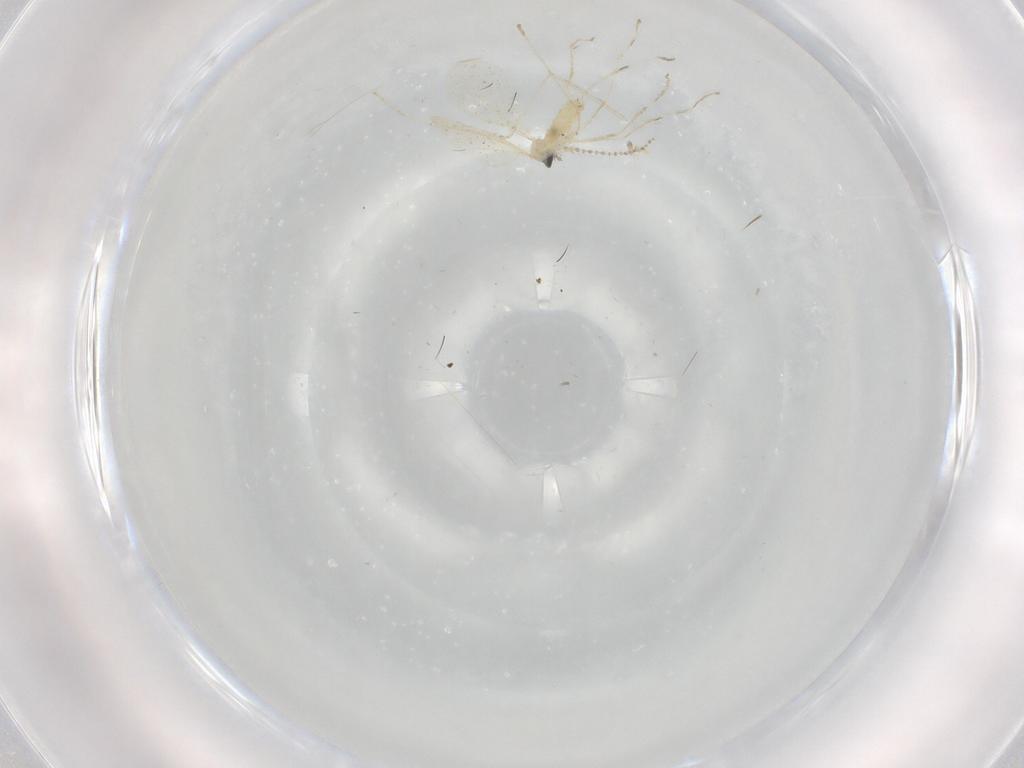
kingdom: Animalia
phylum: Arthropoda
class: Insecta
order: Diptera
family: Cecidomyiidae
